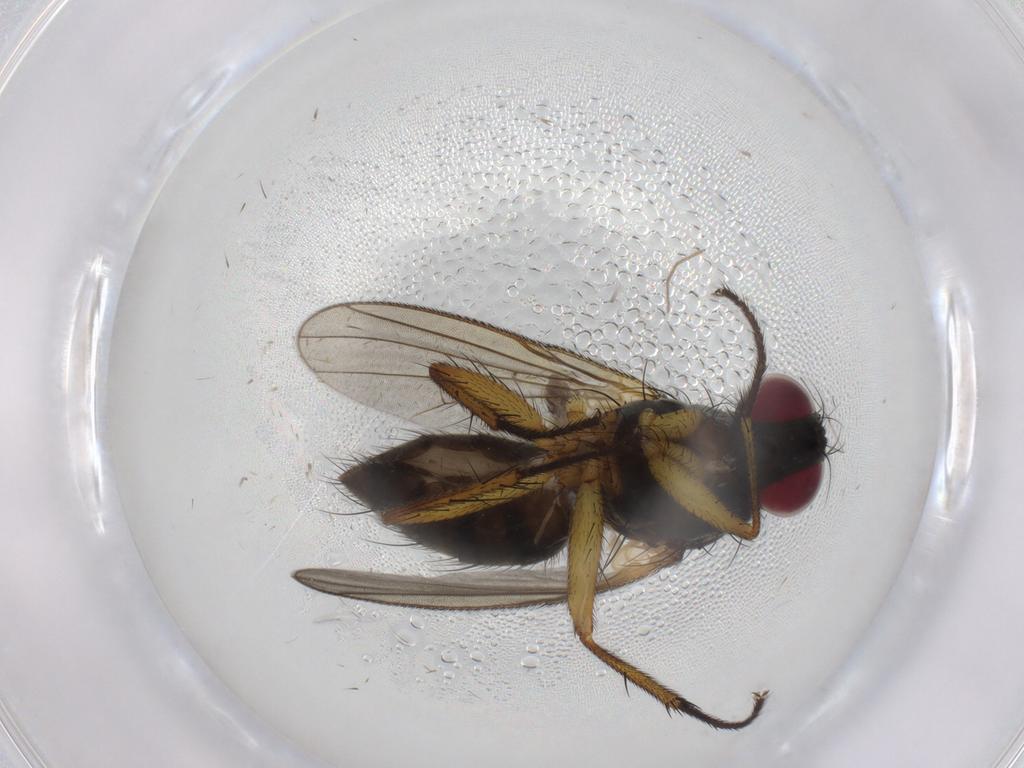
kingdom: Animalia
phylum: Arthropoda
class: Insecta
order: Diptera
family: Muscidae
